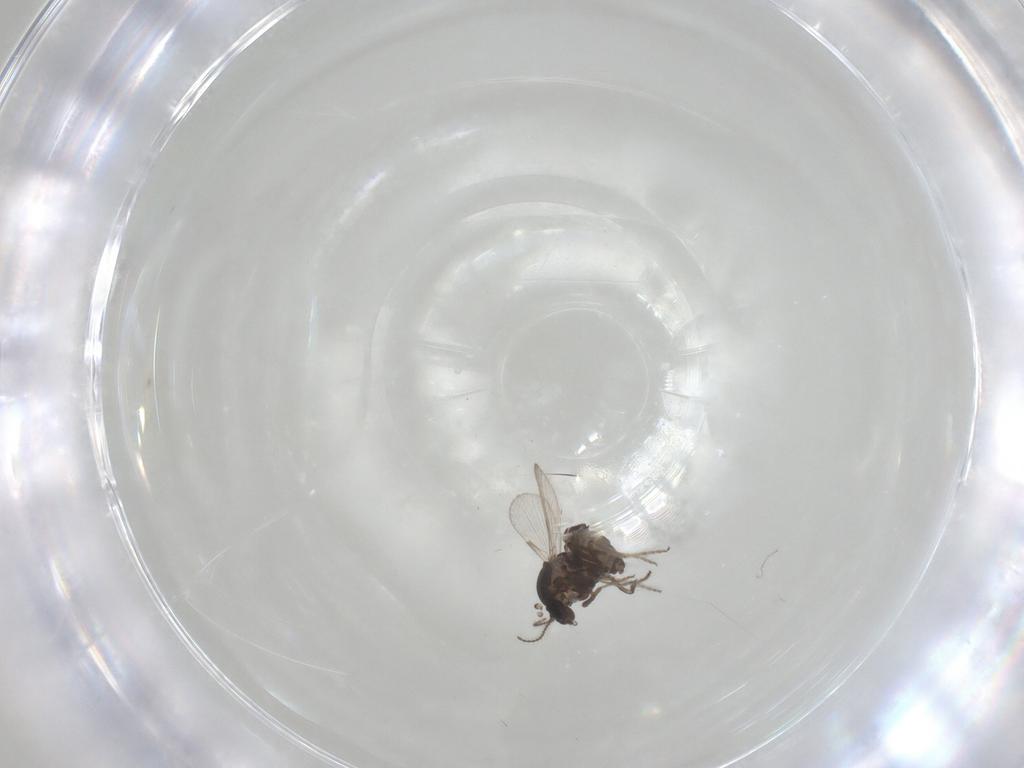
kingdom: Animalia
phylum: Arthropoda
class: Insecta
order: Diptera
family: Ceratopogonidae
